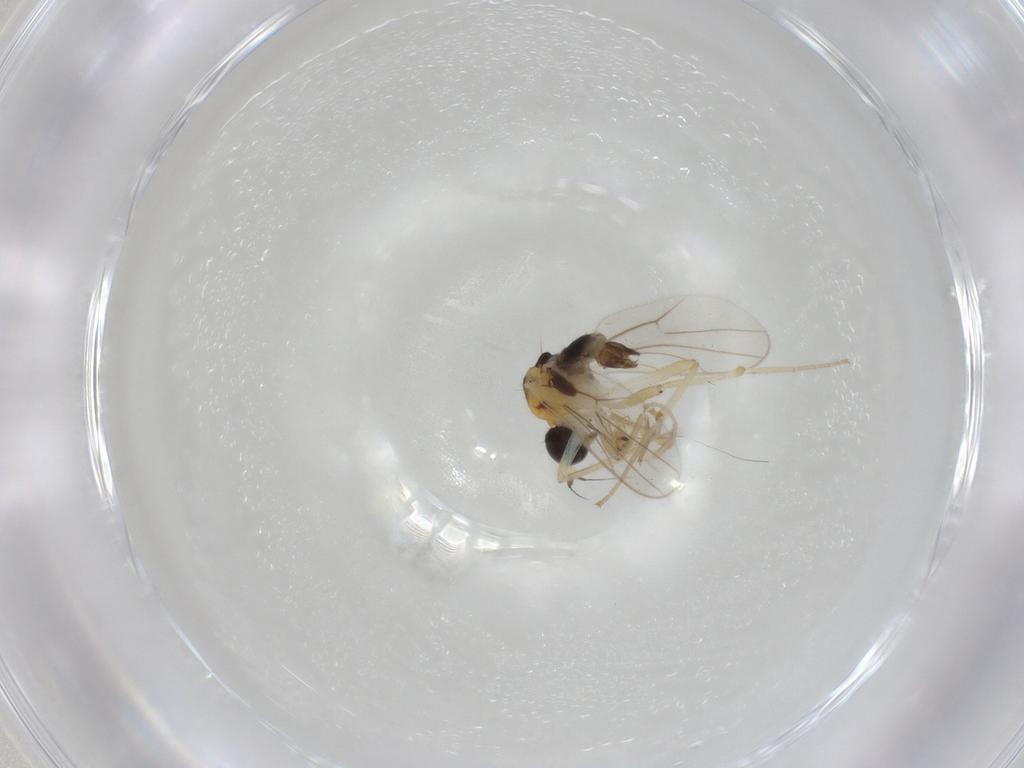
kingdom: Animalia
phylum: Arthropoda
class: Insecta
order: Diptera
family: Hybotidae
